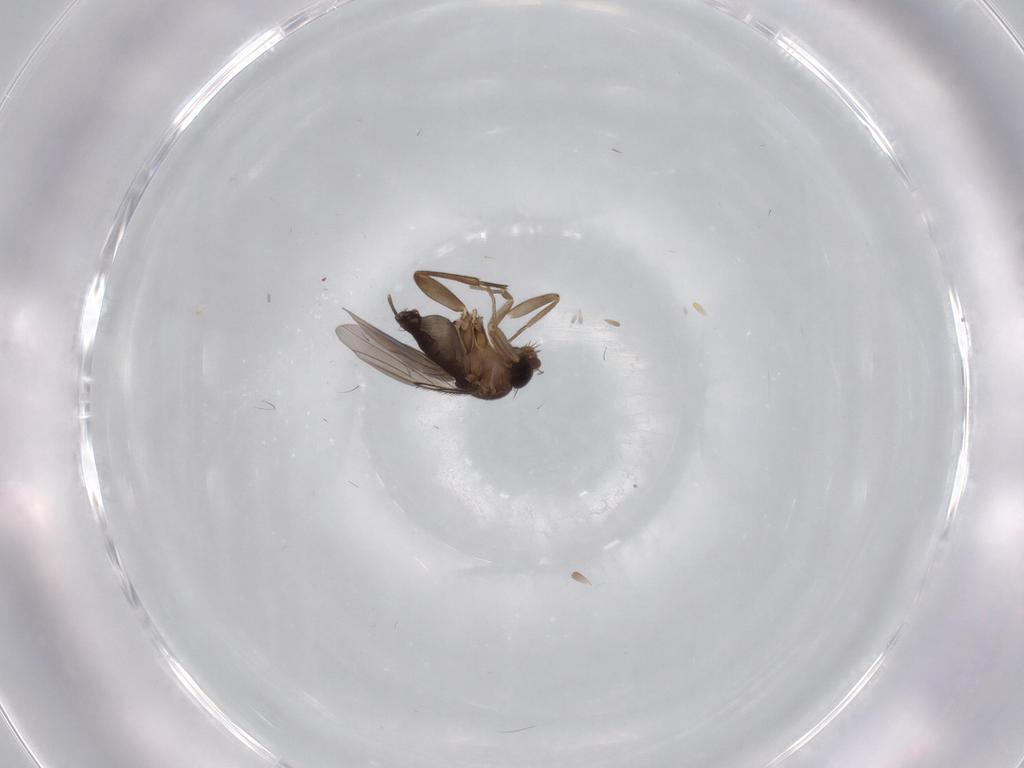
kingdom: Animalia
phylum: Arthropoda
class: Insecta
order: Diptera
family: Phoridae
